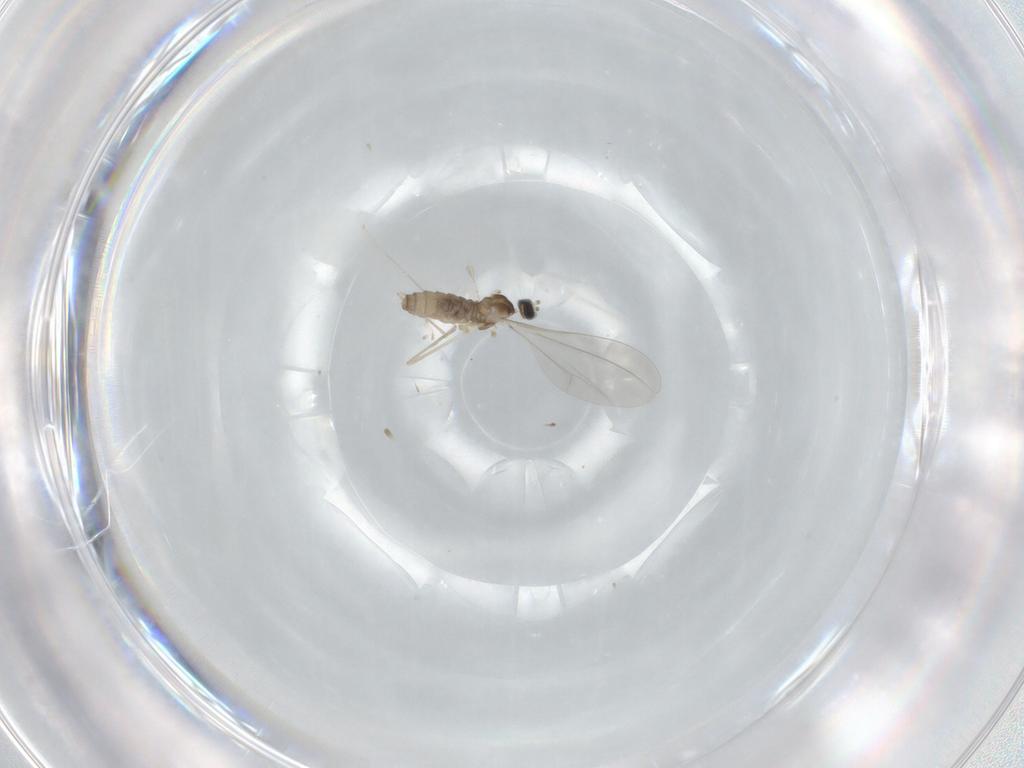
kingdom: Animalia
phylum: Arthropoda
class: Insecta
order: Diptera
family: Cecidomyiidae
